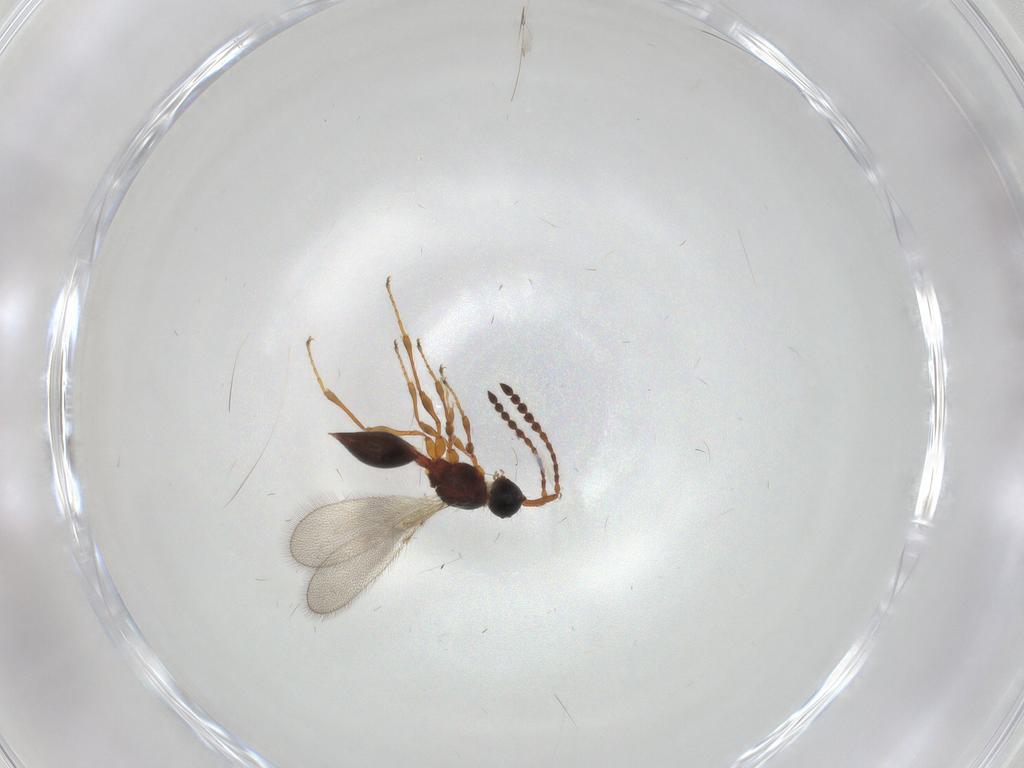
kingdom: Animalia
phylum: Arthropoda
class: Insecta
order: Hymenoptera
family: Diapriidae
